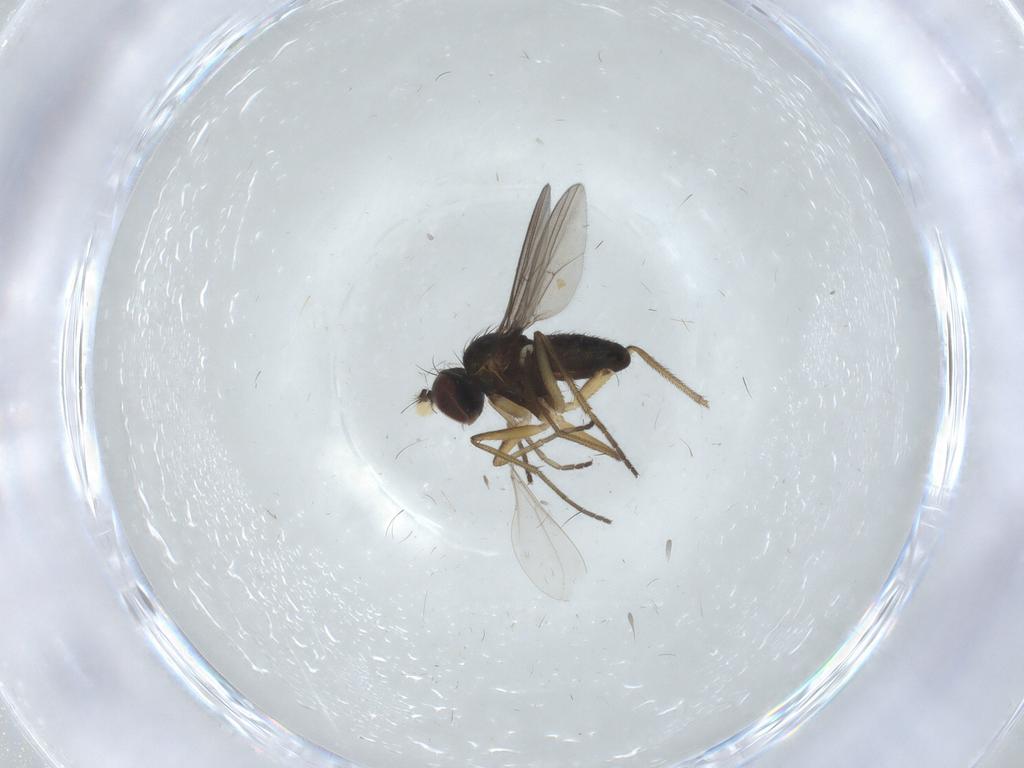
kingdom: Animalia
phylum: Arthropoda
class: Insecta
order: Diptera
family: Dolichopodidae
